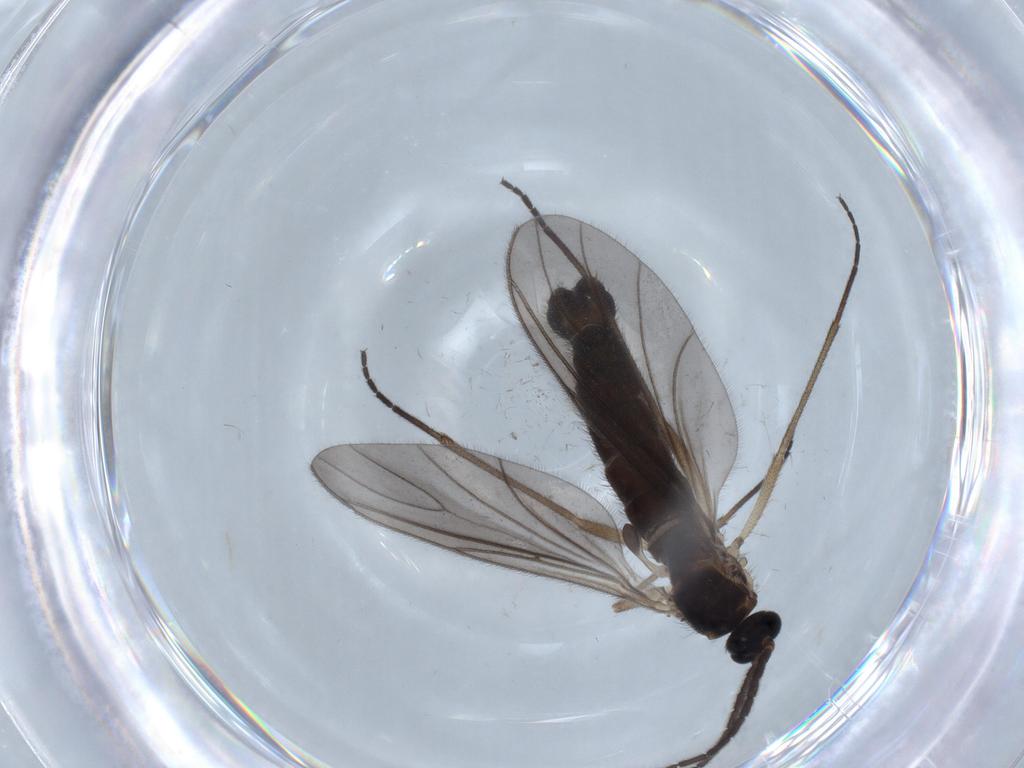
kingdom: Animalia
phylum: Arthropoda
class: Insecta
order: Diptera
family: Sciaridae
